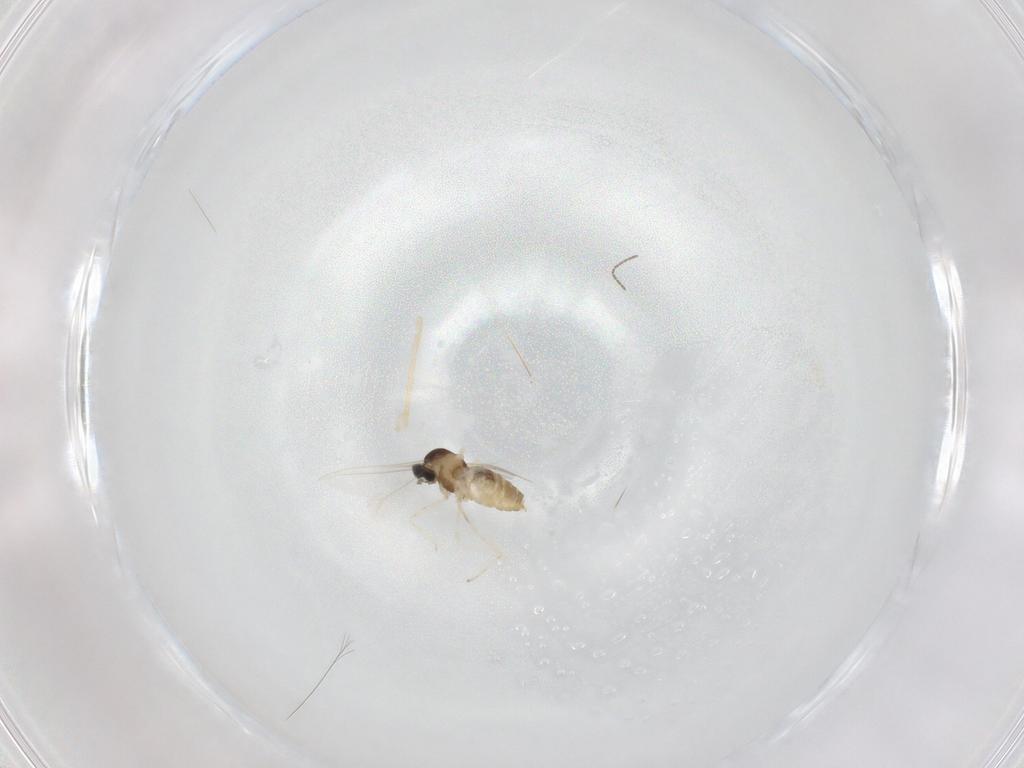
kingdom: Animalia
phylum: Arthropoda
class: Insecta
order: Diptera
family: Cecidomyiidae
